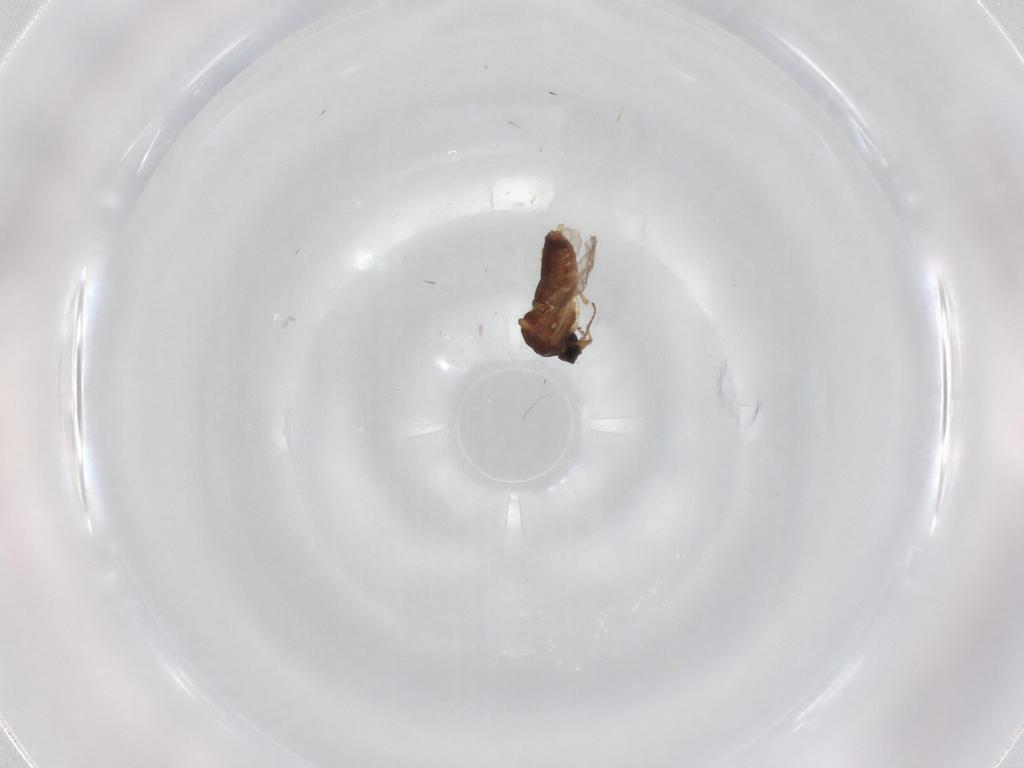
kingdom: Animalia
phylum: Arthropoda
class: Insecta
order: Diptera
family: Ceratopogonidae
